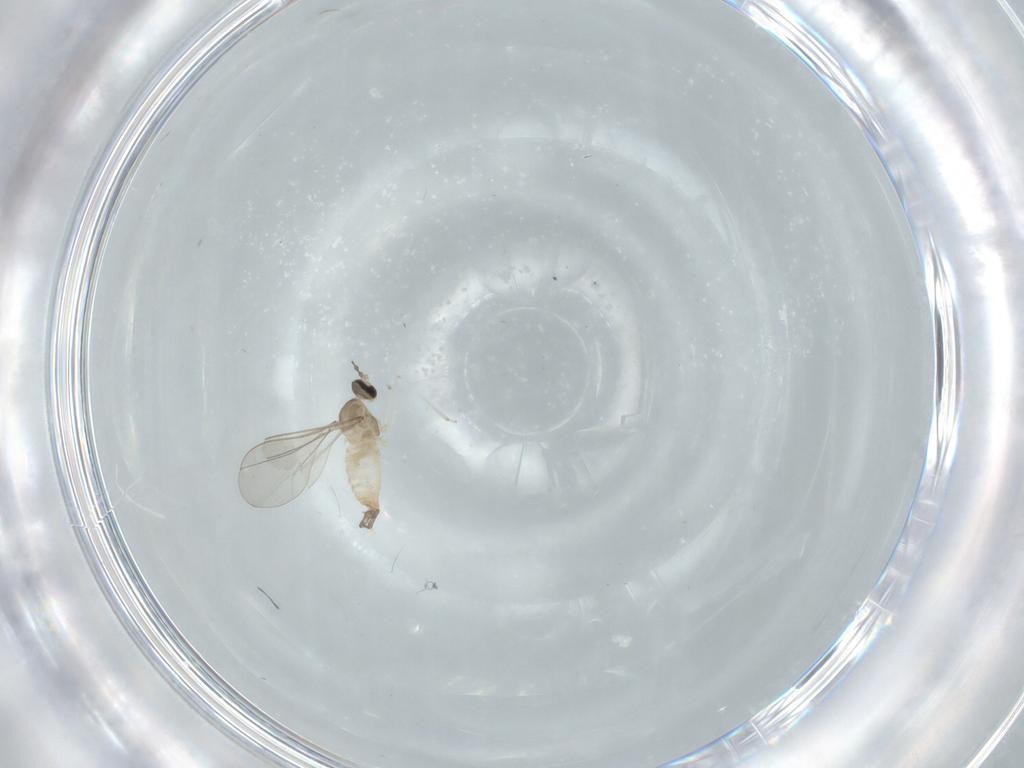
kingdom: Animalia
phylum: Arthropoda
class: Insecta
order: Diptera
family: Cecidomyiidae
